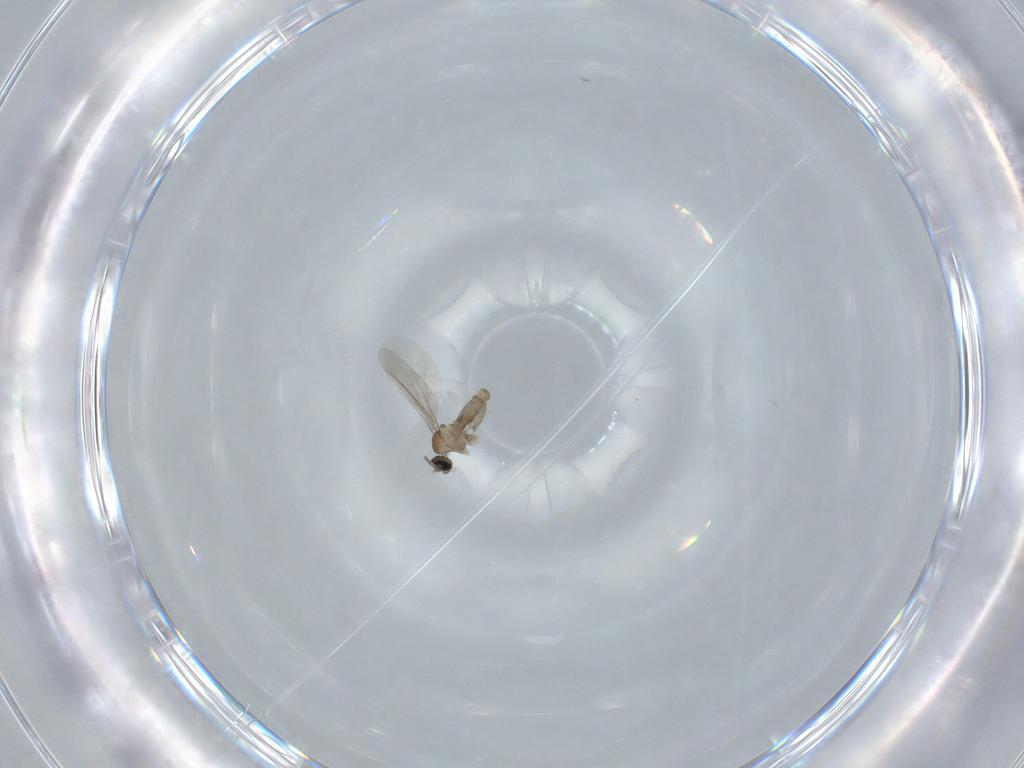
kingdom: Animalia
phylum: Arthropoda
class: Insecta
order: Diptera
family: Cecidomyiidae
